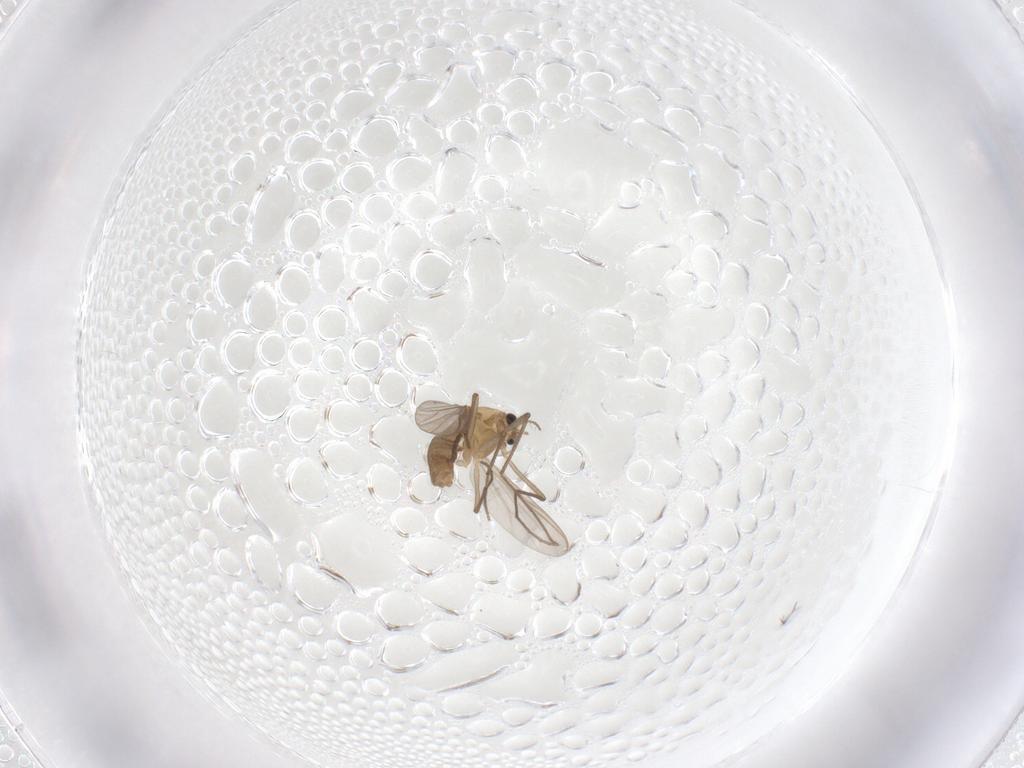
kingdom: Animalia
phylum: Arthropoda
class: Insecta
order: Diptera
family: Chironomidae
